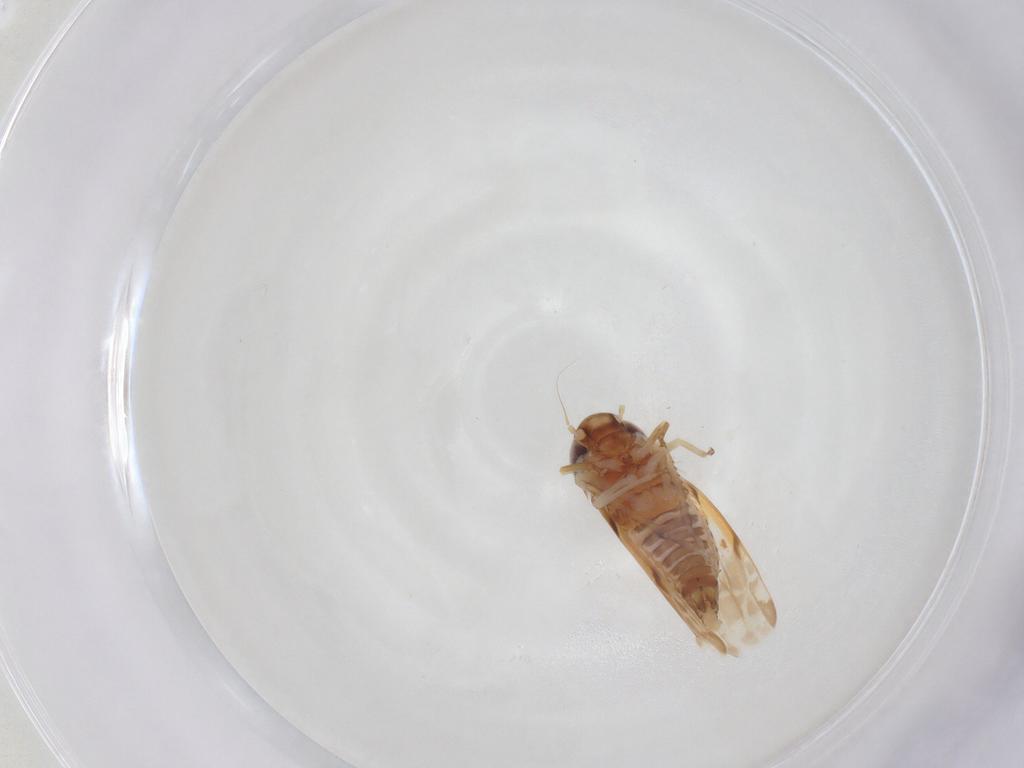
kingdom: Animalia
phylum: Arthropoda
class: Insecta
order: Hemiptera
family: Cicadellidae
